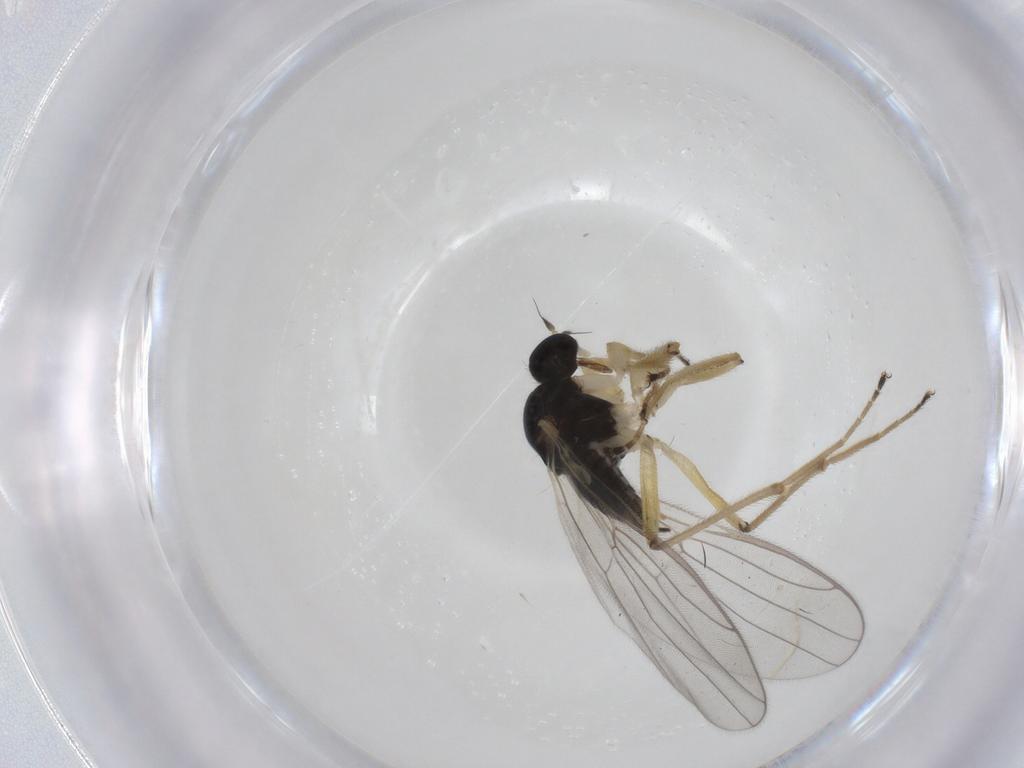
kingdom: Animalia
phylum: Arthropoda
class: Insecta
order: Diptera
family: Hybotidae
